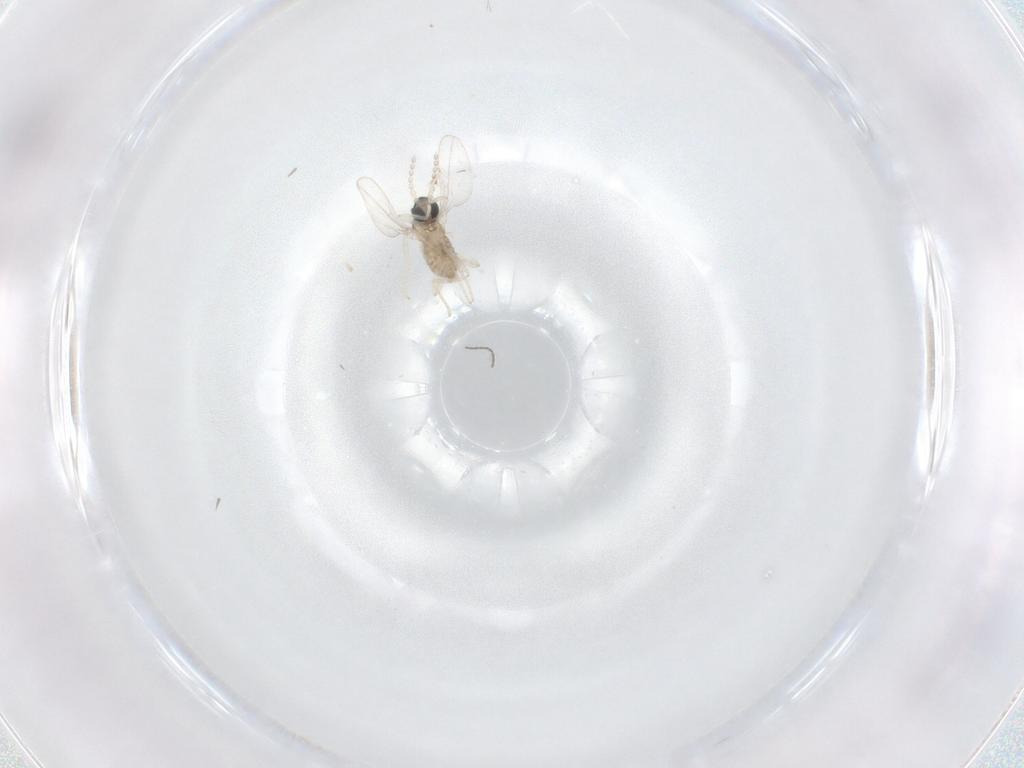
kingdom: Animalia
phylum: Arthropoda
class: Insecta
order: Diptera
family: Cecidomyiidae
